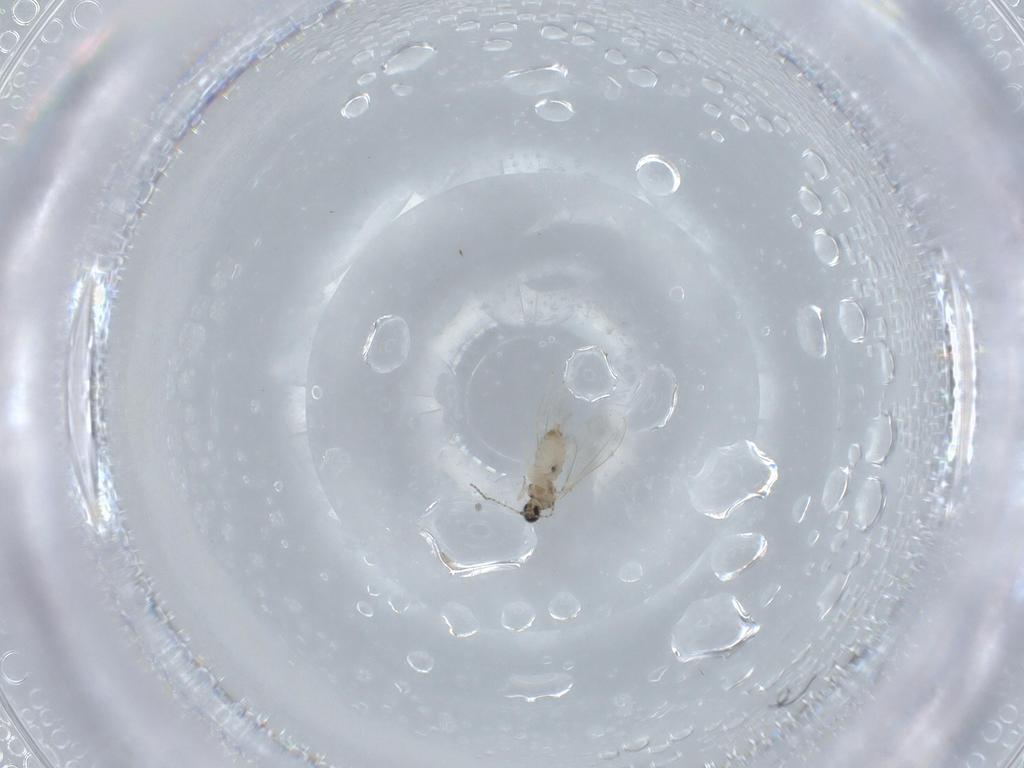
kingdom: Animalia
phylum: Arthropoda
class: Insecta
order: Diptera
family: Cecidomyiidae
